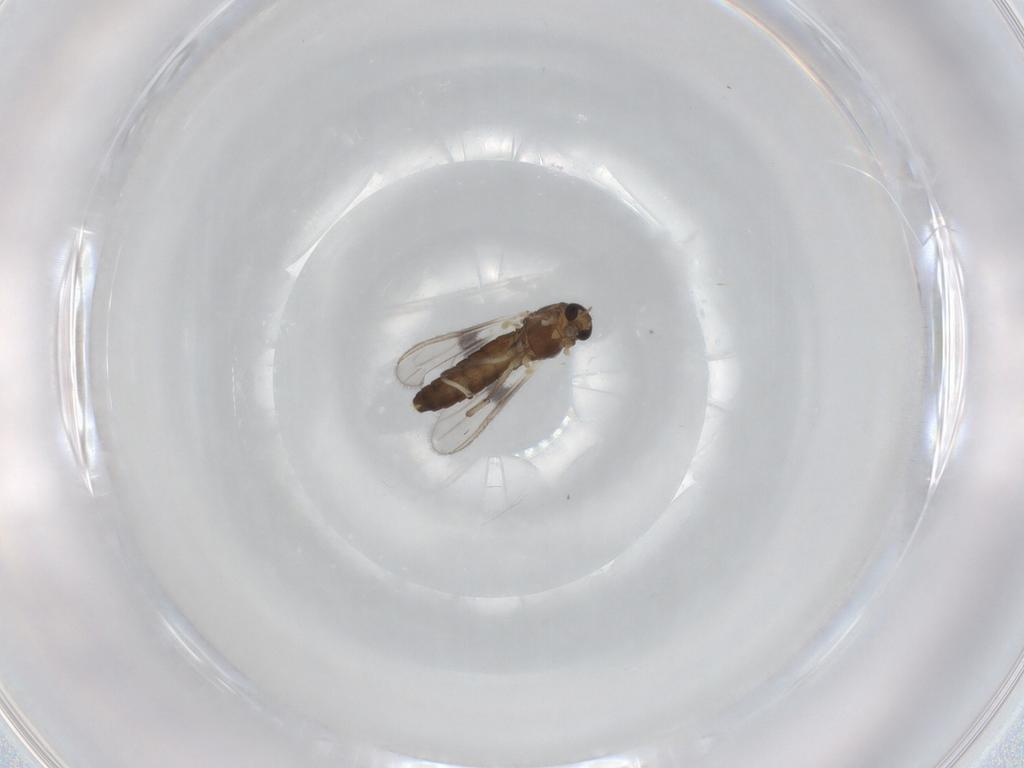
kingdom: Animalia
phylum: Arthropoda
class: Insecta
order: Diptera
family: Chironomidae
